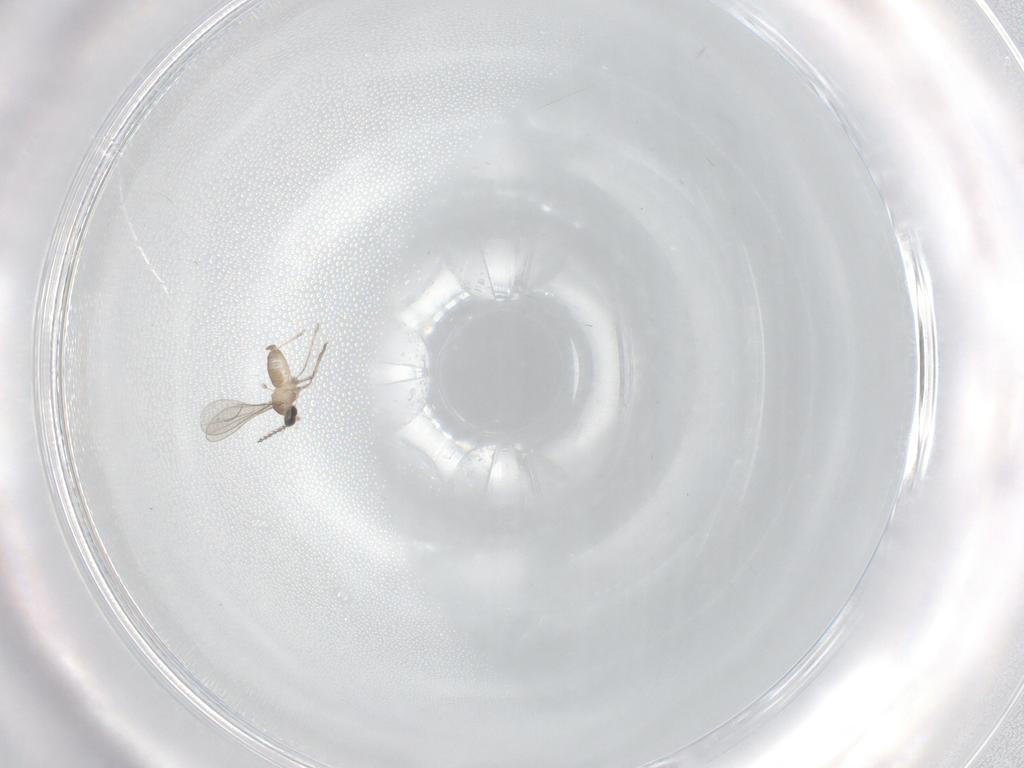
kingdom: Animalia
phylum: Arthropoda
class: Insecta
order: Diptera
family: Cecidomyiidae
